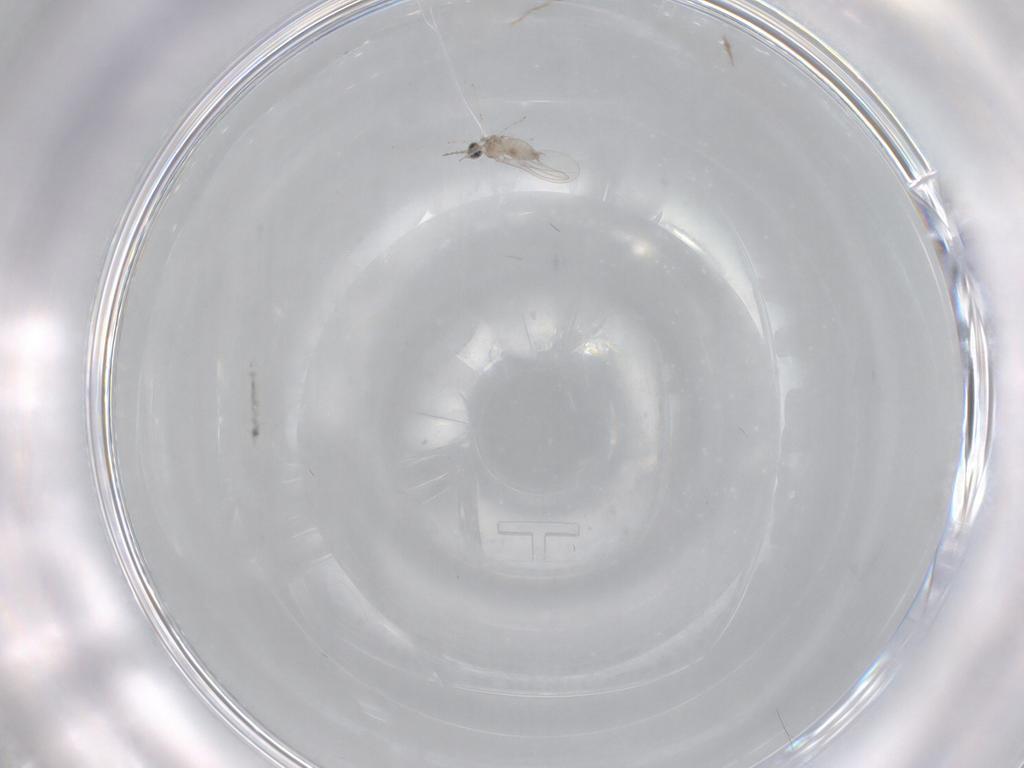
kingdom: Animalia
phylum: Arthropoda
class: Insecta
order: Diptera
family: Cecidomyiidae
